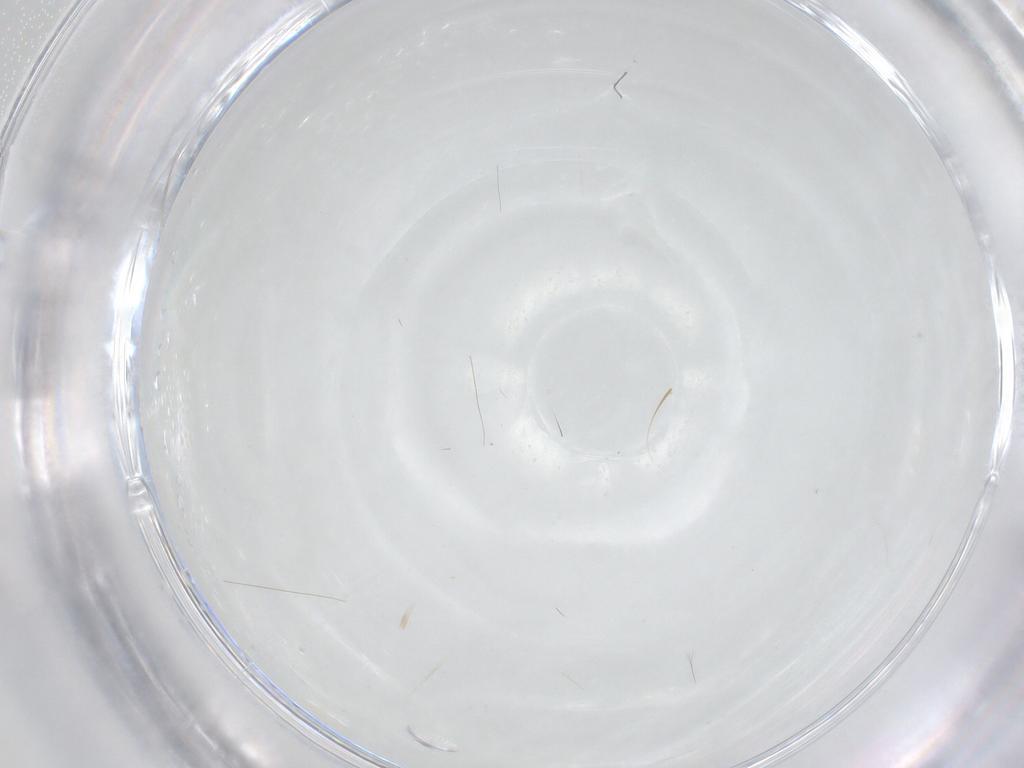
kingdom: Animalia
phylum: Arthropoda
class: Insecta
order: Diptera
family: Ceratopogonidae
